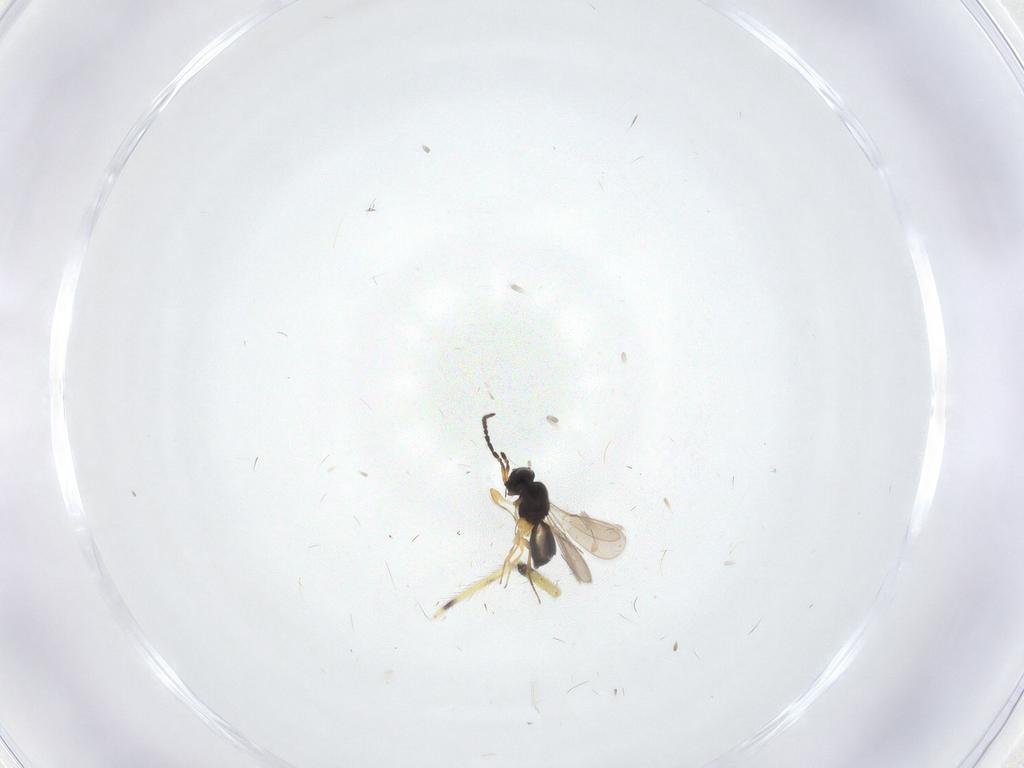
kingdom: Animalia
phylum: Arthropoda
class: Insecta
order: Hymenoptera
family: Scelionidae
